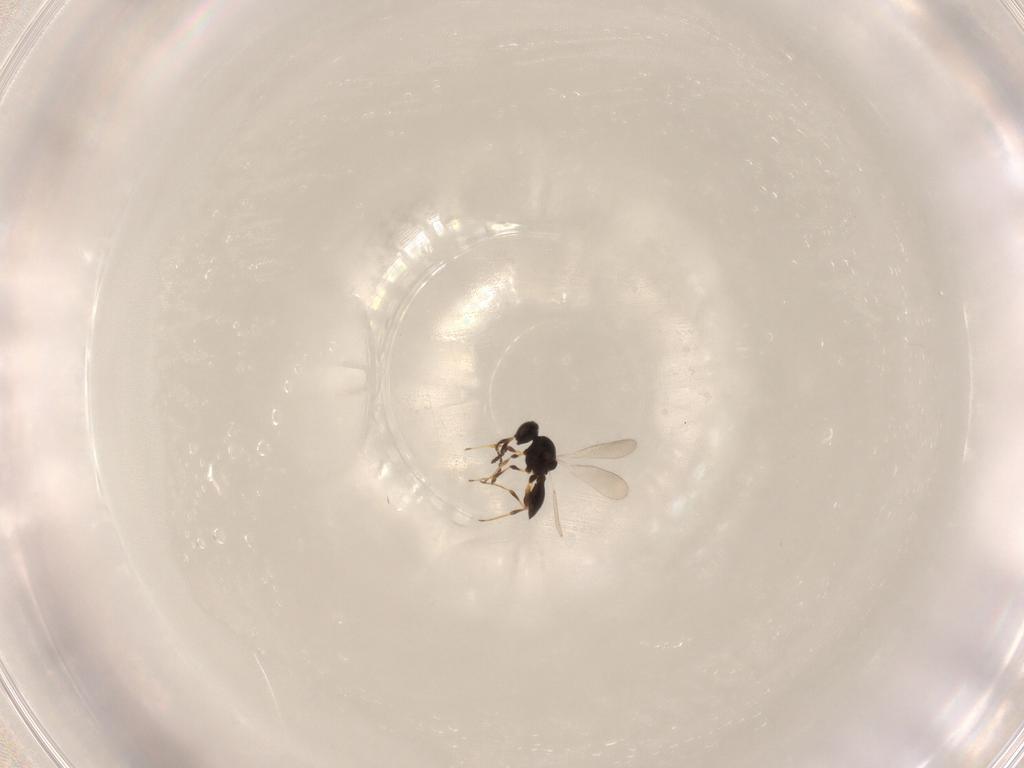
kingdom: Animalia
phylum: Arthropoda
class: Insecta
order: Hymenoptera
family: Platygastridae
